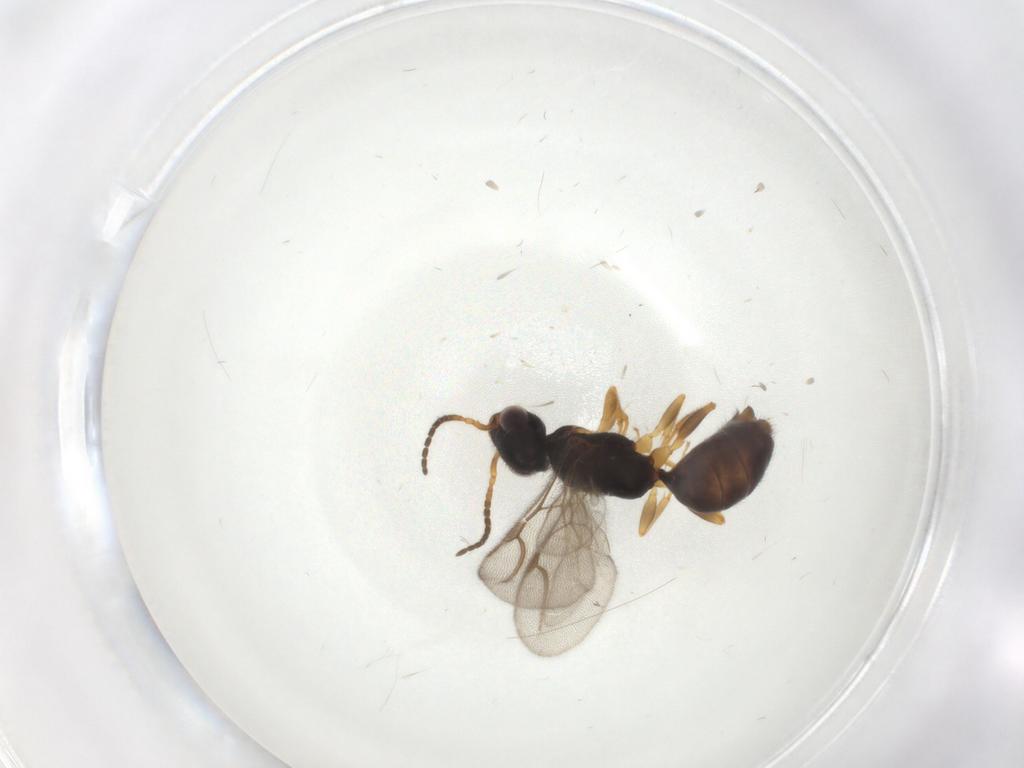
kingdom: Animalia
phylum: Arthropoda
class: Insecta
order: Hymenoptera
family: Bethylidae
